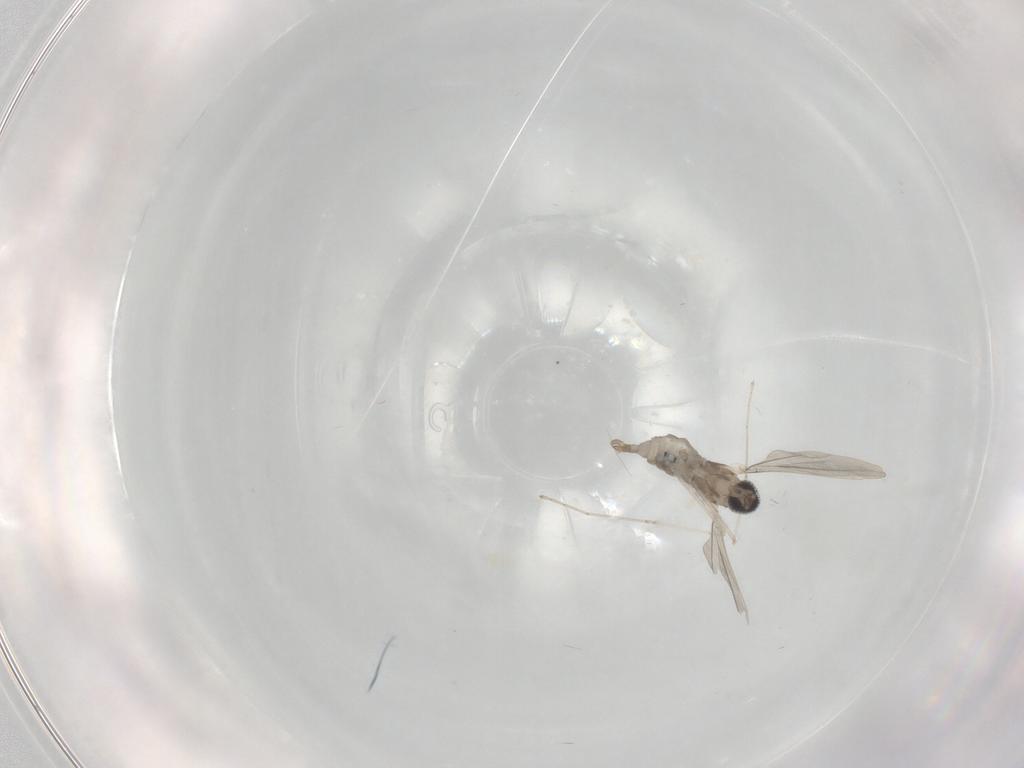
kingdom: Animalia
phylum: Arthropoda
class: Insecta
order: Diptera
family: Cecidomyiidae
